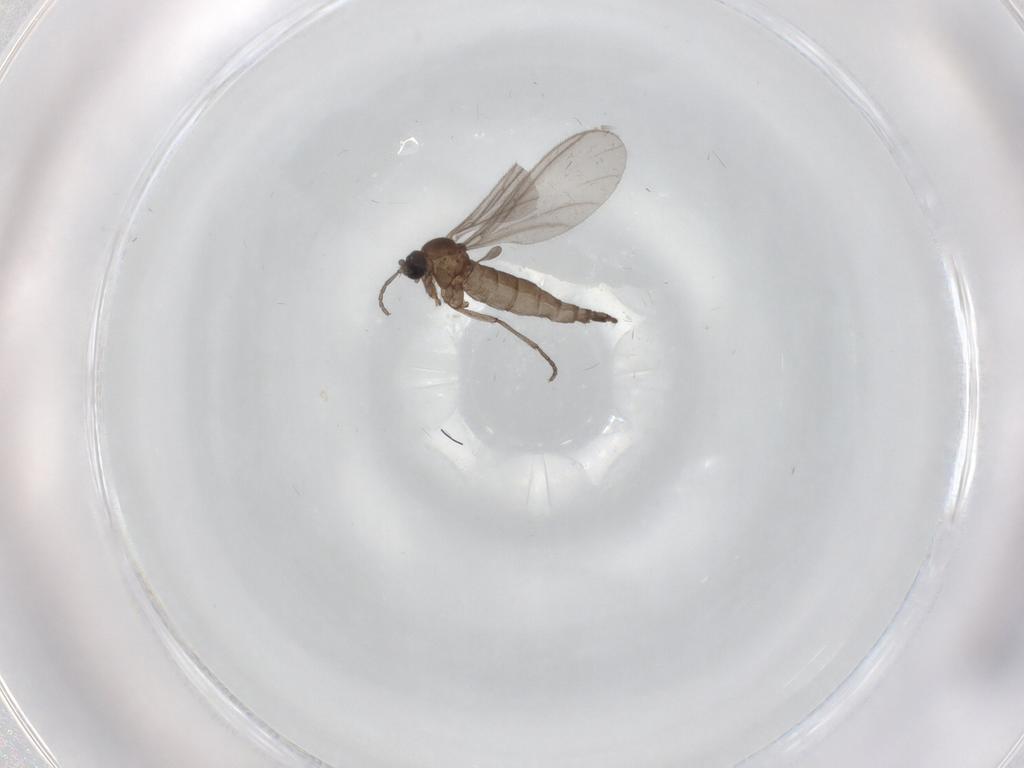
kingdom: Animalia
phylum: Arthropoda
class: Insecta
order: Diptera
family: Sciaridae
